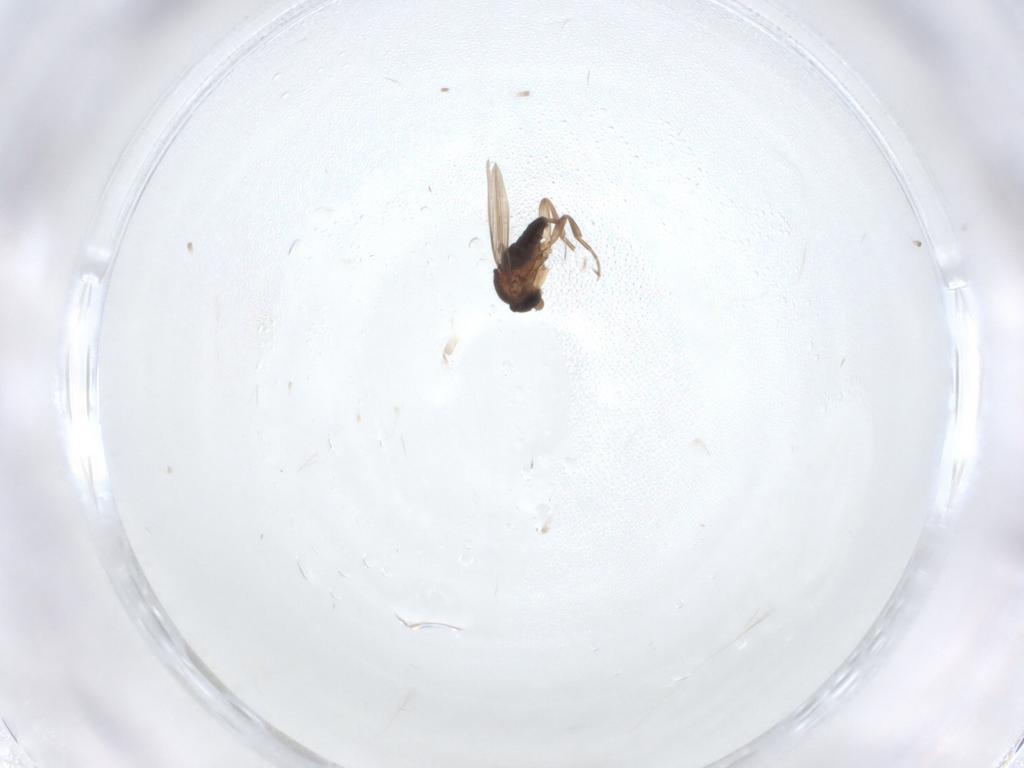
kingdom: Animalia
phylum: Arthropoda
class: Insecta
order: Diptera
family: Phoridae
